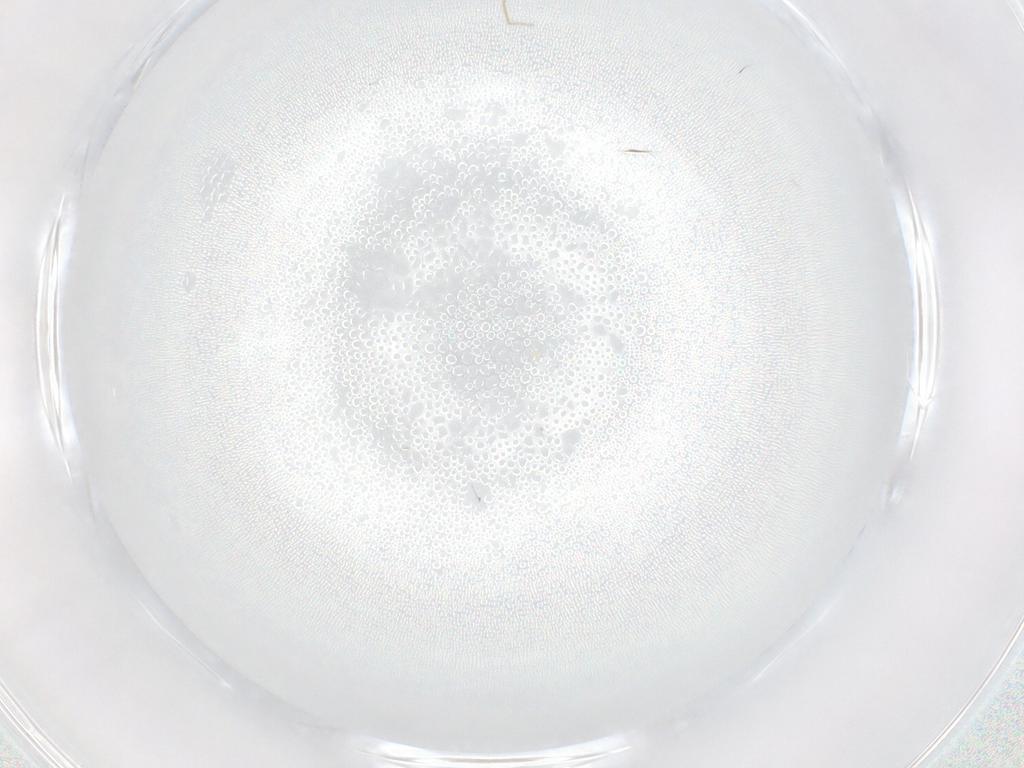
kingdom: Animalia
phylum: Arthropoda
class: Insecta
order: Diptera
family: Cecidomyiidae
